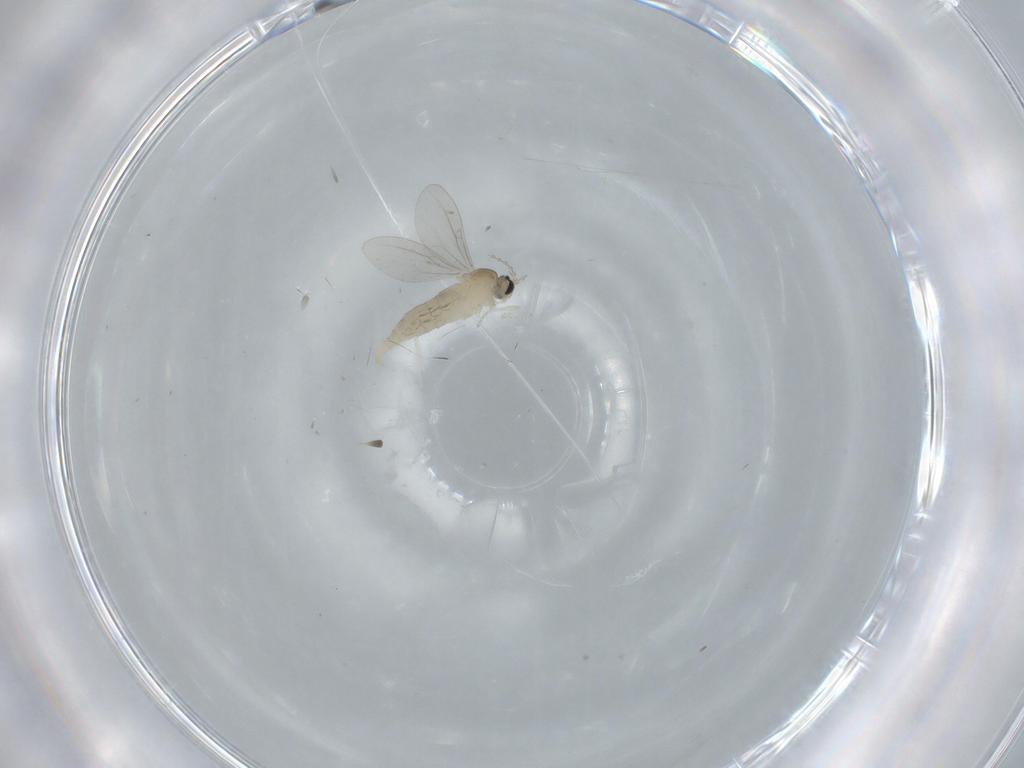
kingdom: Animalia
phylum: Arthropoda
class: Insecta
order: Diptera
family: Cecidomyiidae
